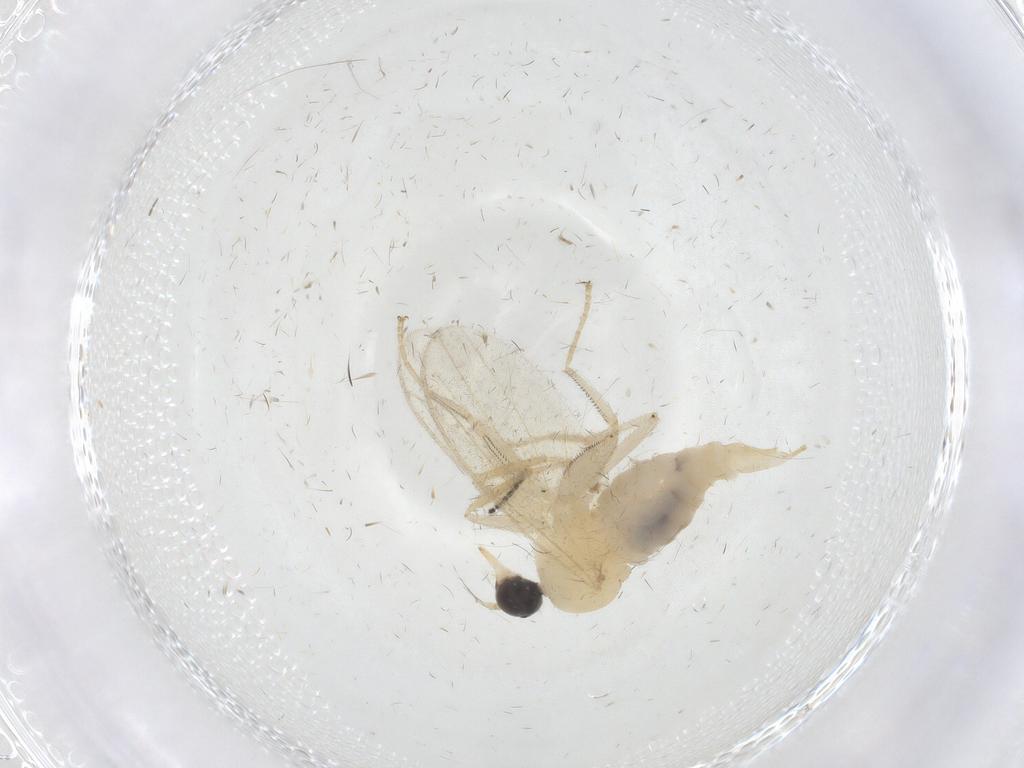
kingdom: Animalia
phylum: Arthropoda
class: Insecta
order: Diptera
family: Hybotidae
